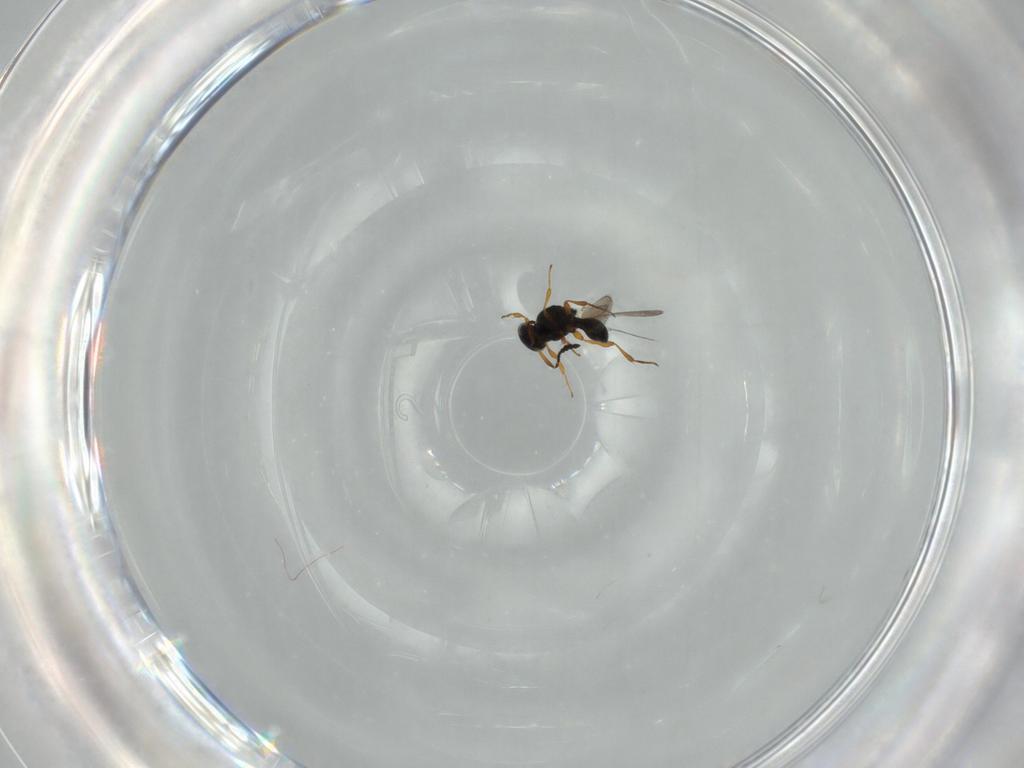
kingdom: Animalia
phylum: Arthropoda
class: Insecta
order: Hymenoptera
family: Platygastridae
